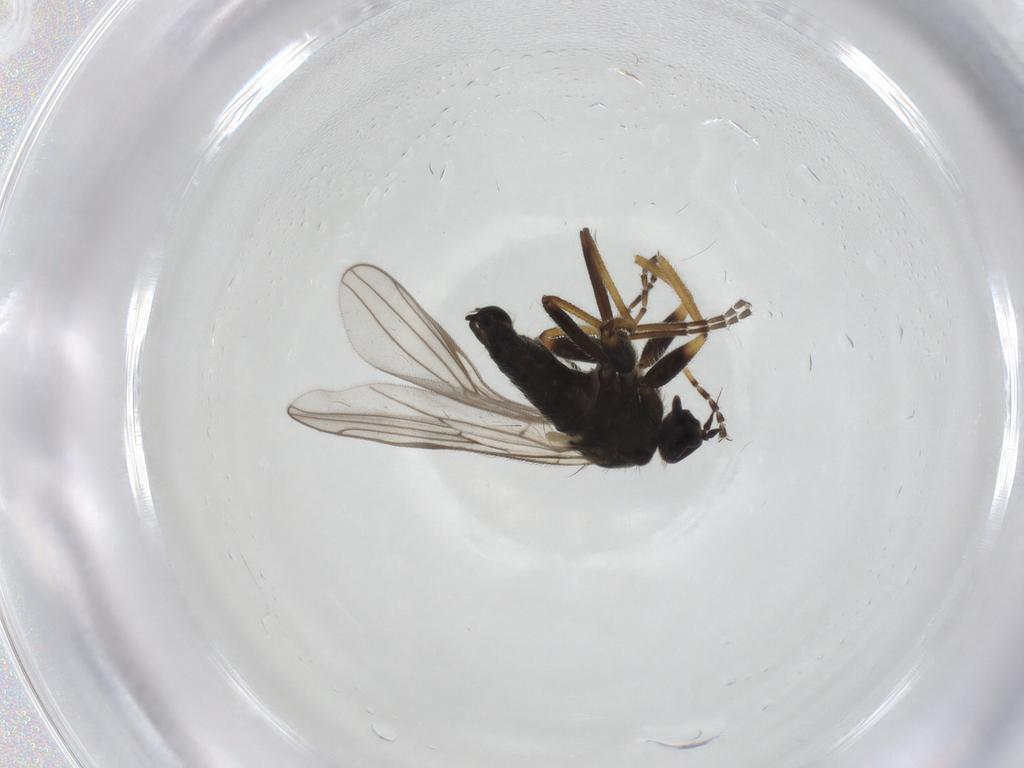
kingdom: Animalia
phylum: Arthropoda
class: Insecta
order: Diptera
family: Hybotidae
